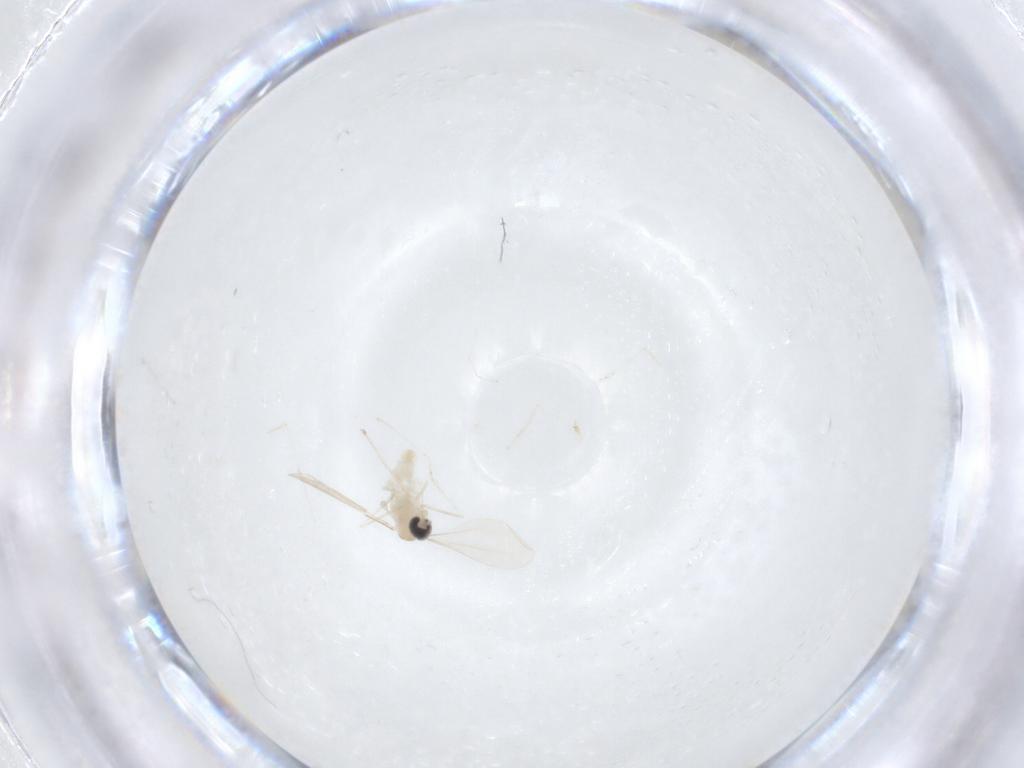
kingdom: Animalia
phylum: Arthropoda
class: Insecta
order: Diptera
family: Cecidomyiidae
